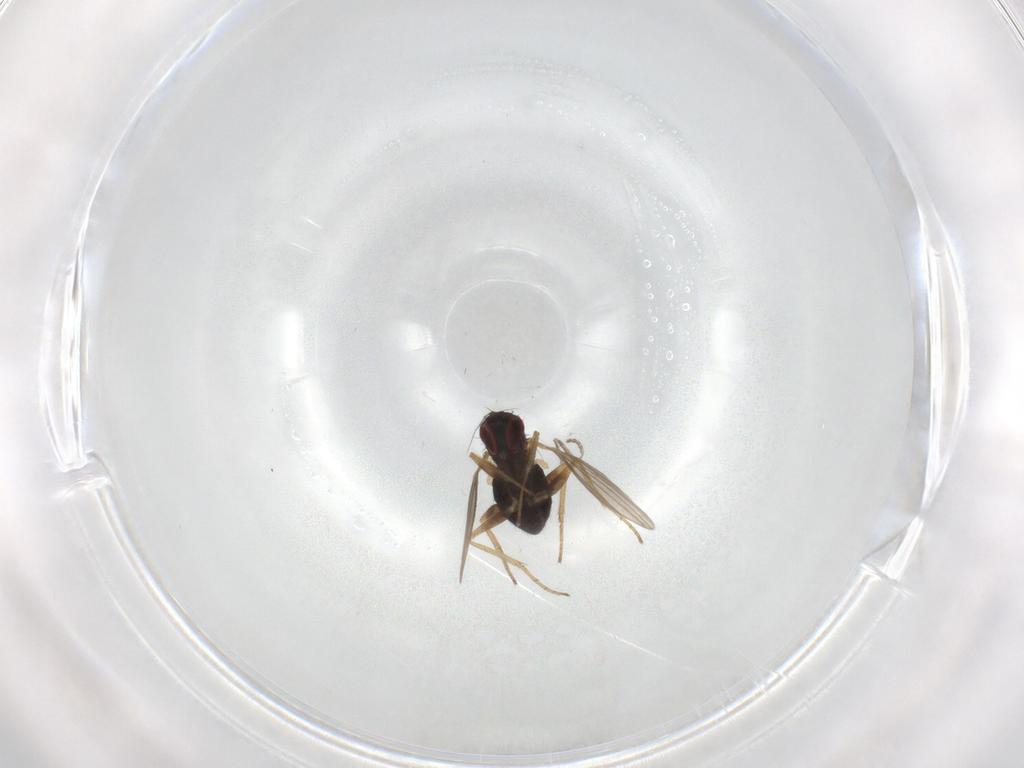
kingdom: Animalia
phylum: Arthropoda
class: Insecta
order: Diptera
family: Dolichopodidae
